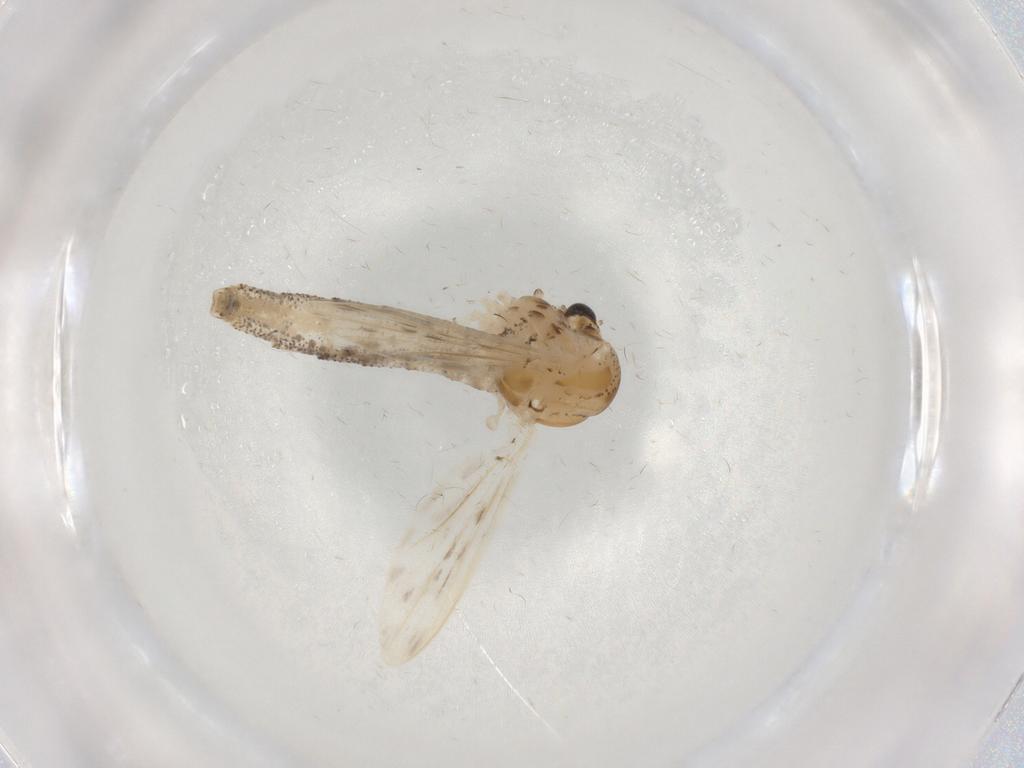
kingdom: Animalia
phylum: Arthropoda
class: Insecta
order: Diptera
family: Chaoboridae
